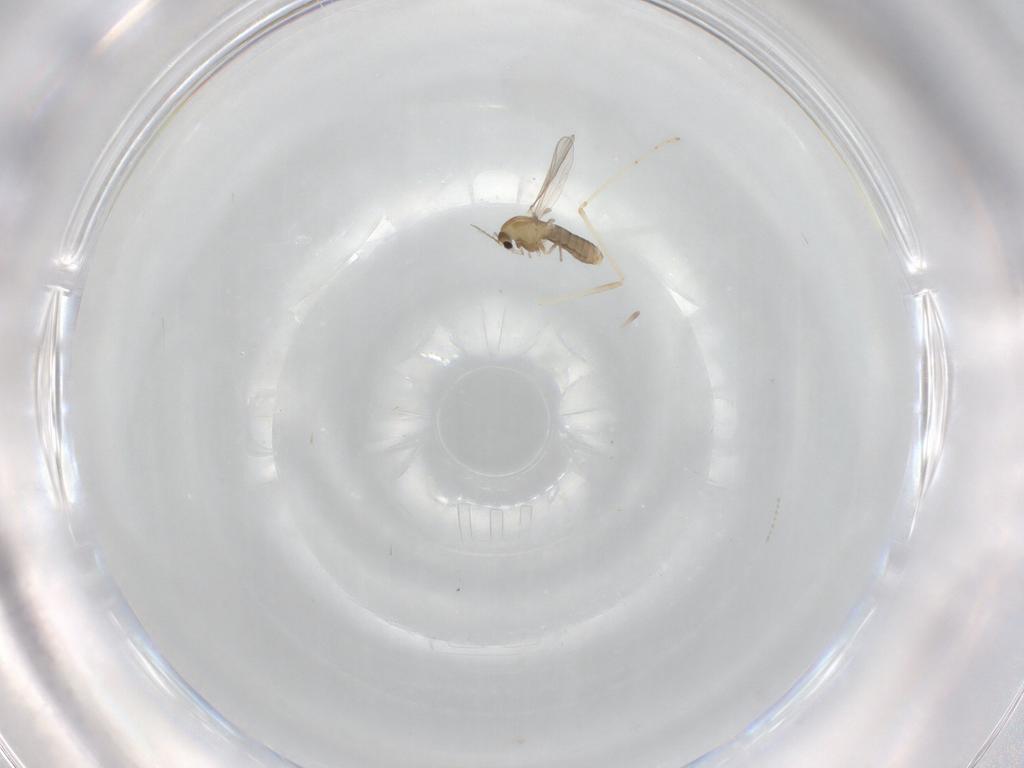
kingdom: Animalia
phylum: Arthropoda
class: Insecta
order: Diptera
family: Chironomidae
